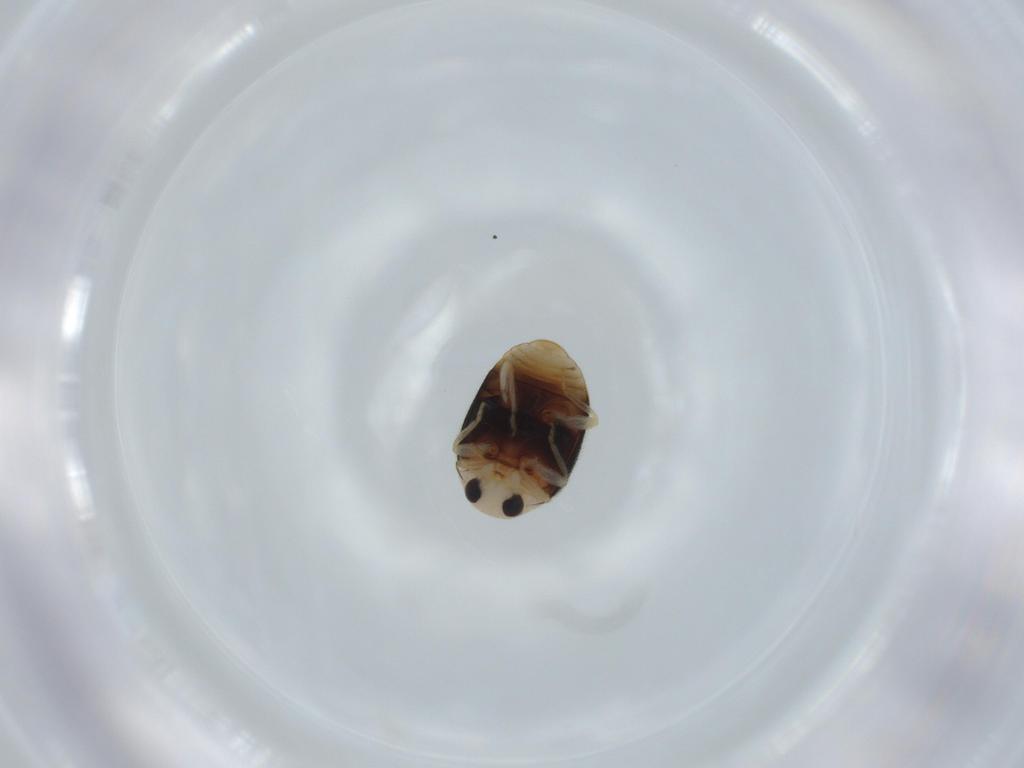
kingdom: Animalia
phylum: Arthropoda
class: Insecta
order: Coleoptera
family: Coccinellidae
